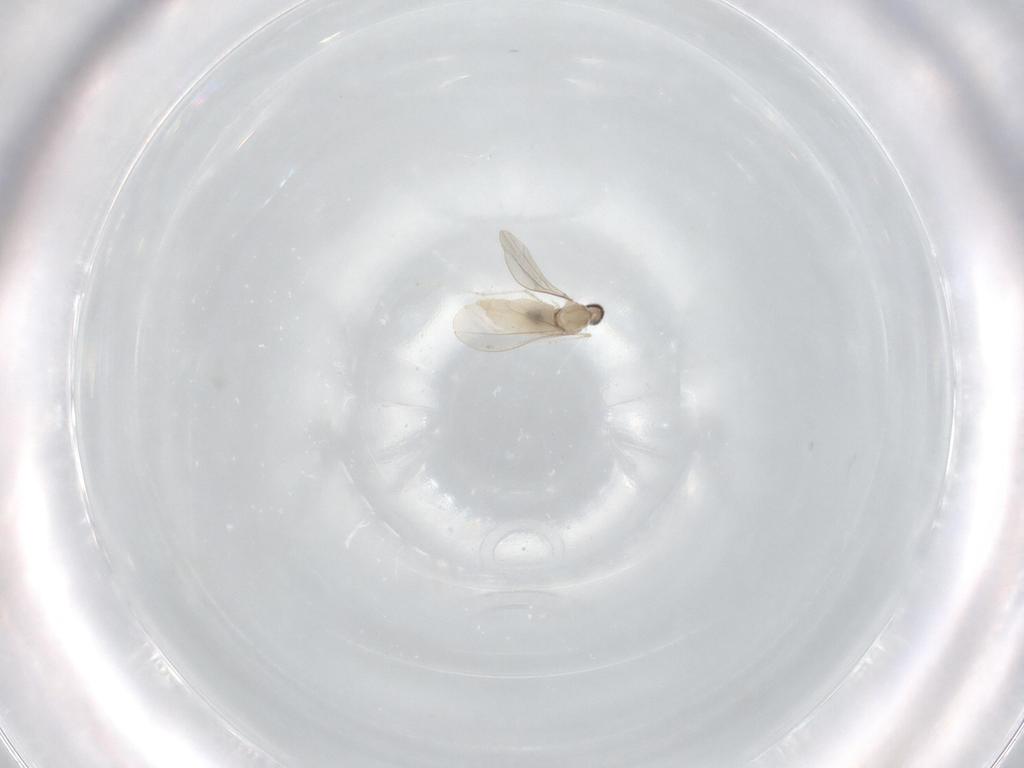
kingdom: Animalia
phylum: Arthropoda
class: Insecta
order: Diptera
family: Cecidomyiidae
